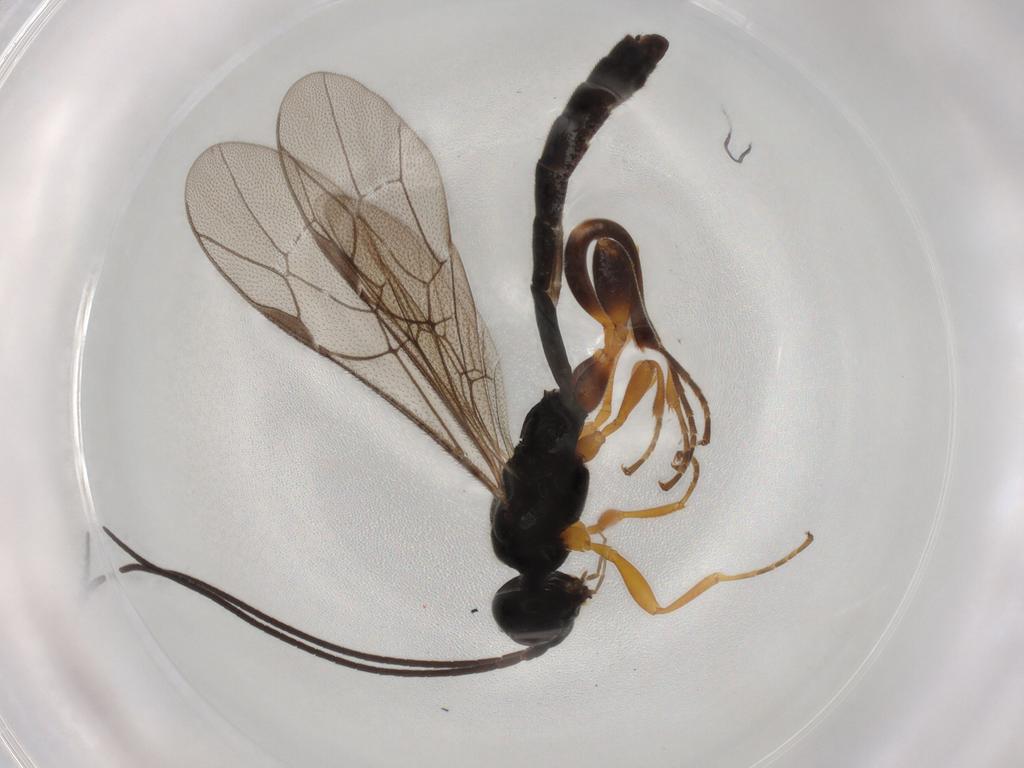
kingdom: Animalia
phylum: Arthropoda
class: Insecta
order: Hymenoptera
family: Ichneumonidae
